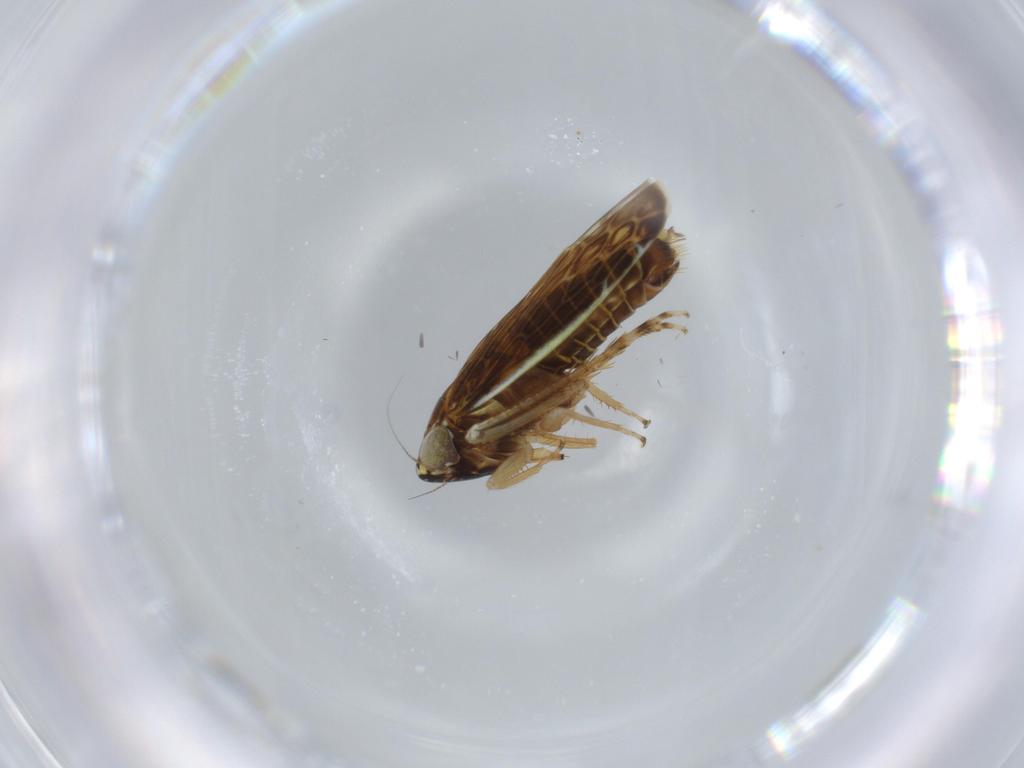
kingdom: Animalia
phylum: Arthropoda
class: Insecta
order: Hemiptera
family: Cicadellidae
